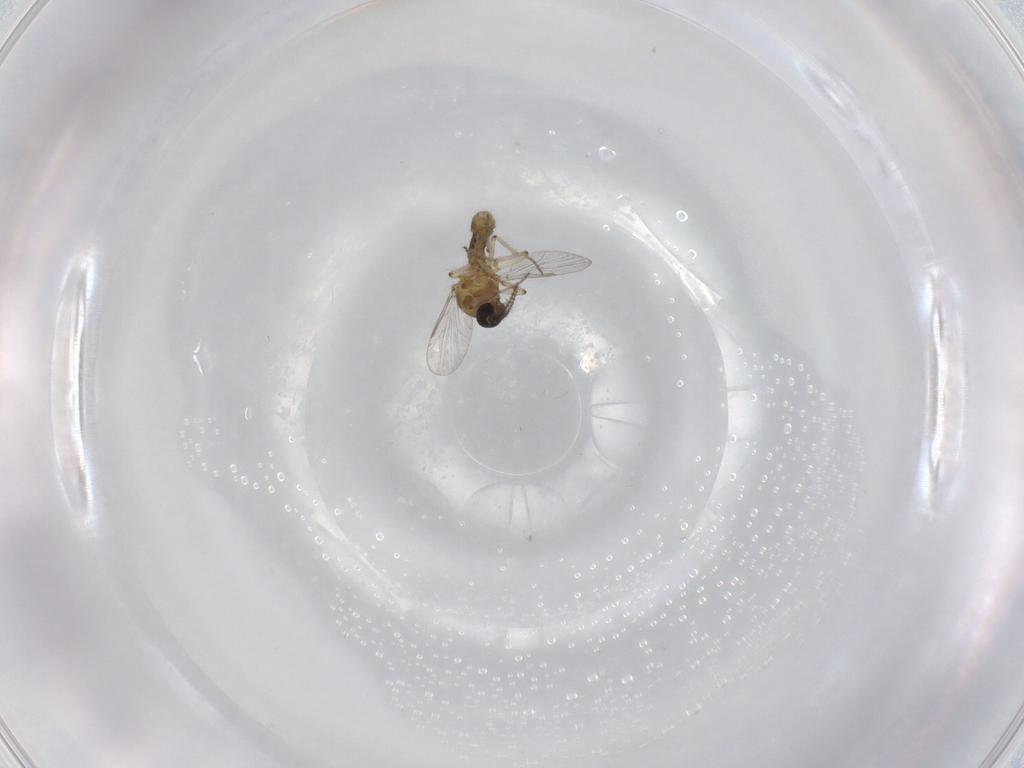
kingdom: Animalia
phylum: Arthropoda
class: Insecta
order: Diptera
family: Ceratopogonidae
